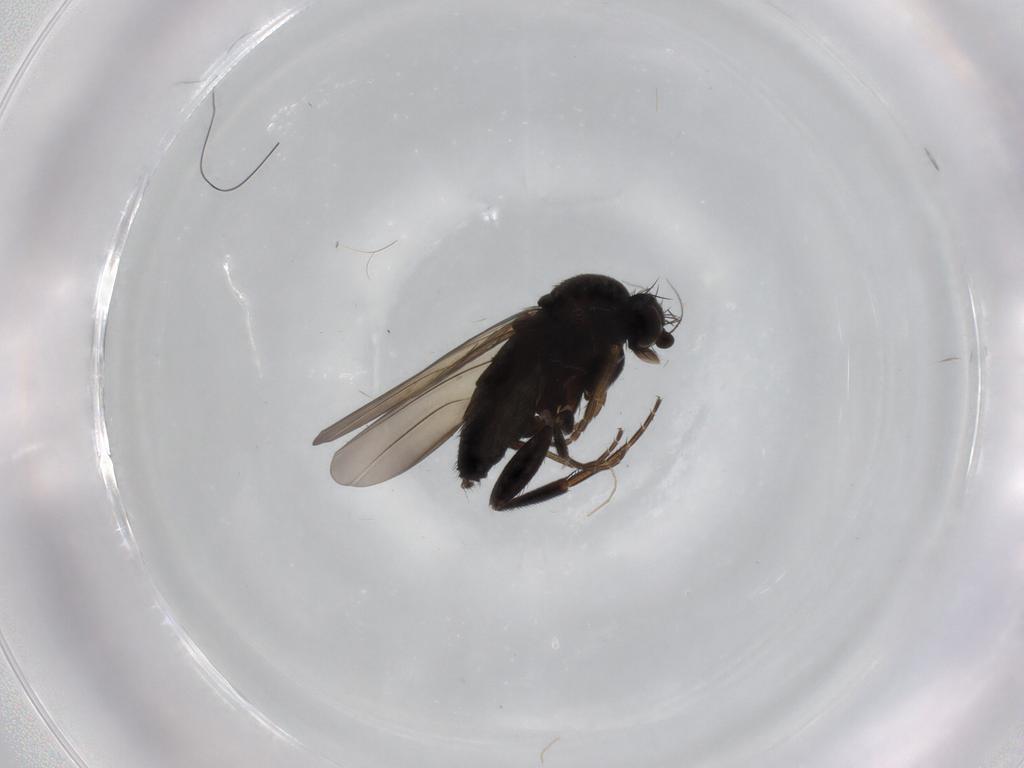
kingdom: Animalia
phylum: Arthropoda
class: Insecta
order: Diptera
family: Phoridae
